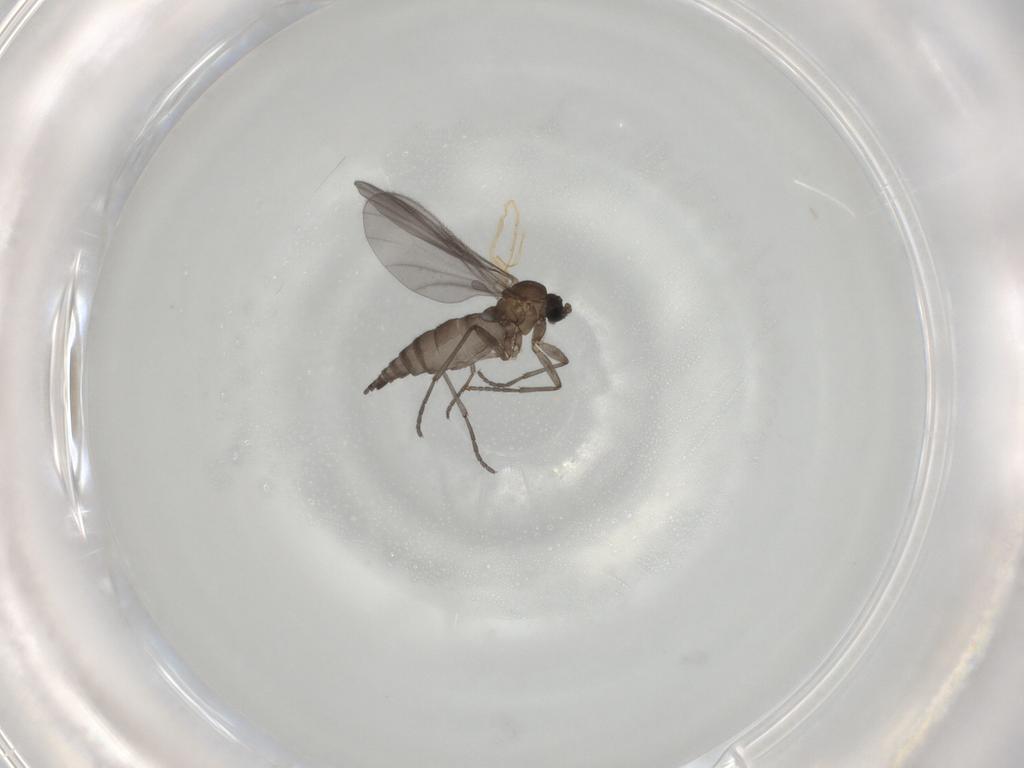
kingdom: Animalia
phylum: Arthropoda
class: Insecta
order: Diptera
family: Sciaridae
